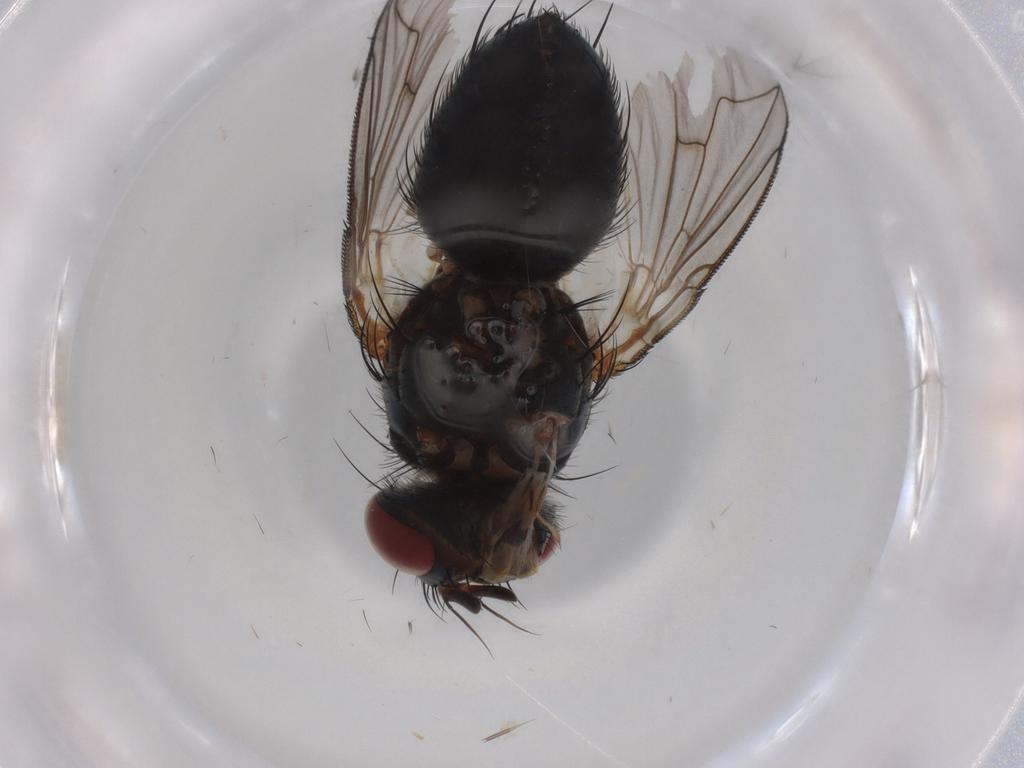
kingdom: Animalia
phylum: Arthropoda
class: Insecta
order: Diptera
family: Tachinidae
